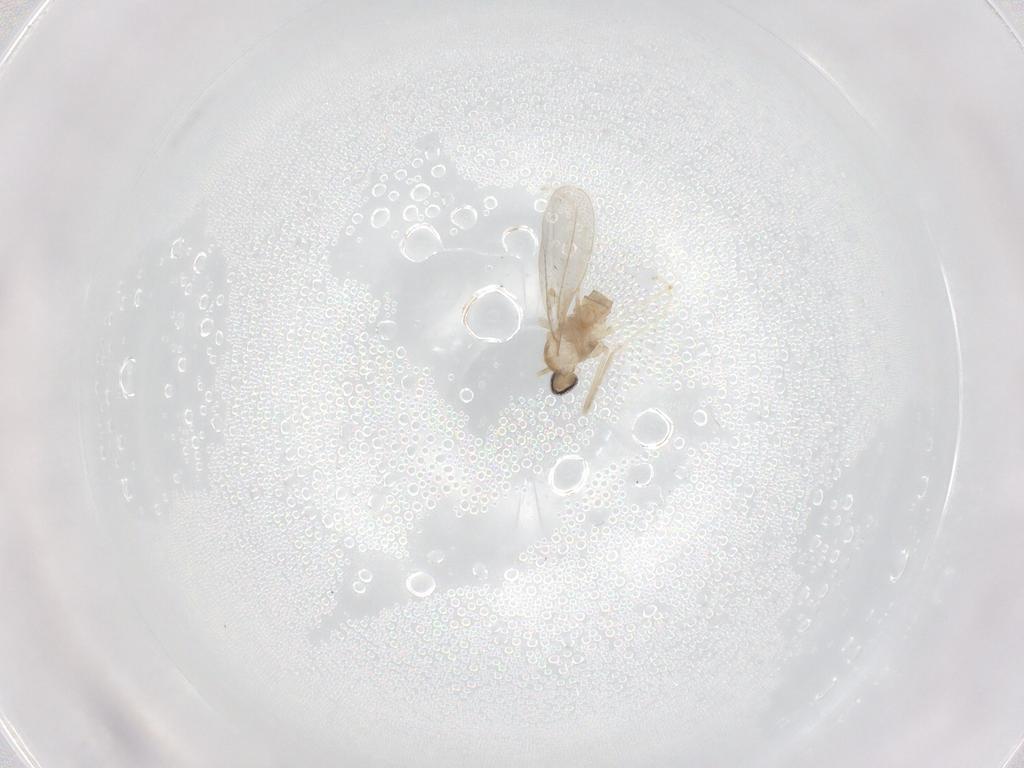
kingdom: Animalia
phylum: Arthropoda
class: Insecta
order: Diptera
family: Cecidomyiidae
